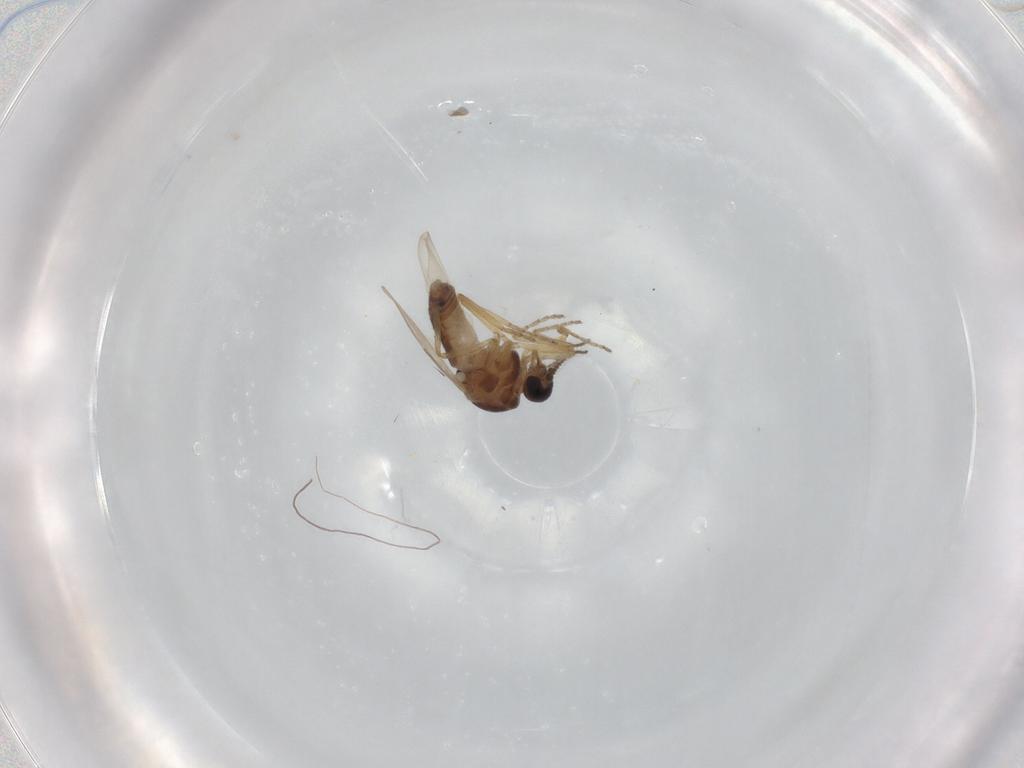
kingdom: Animalia
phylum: Arthropoda
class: Insecta
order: Diptera
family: Ceratopogonidae
